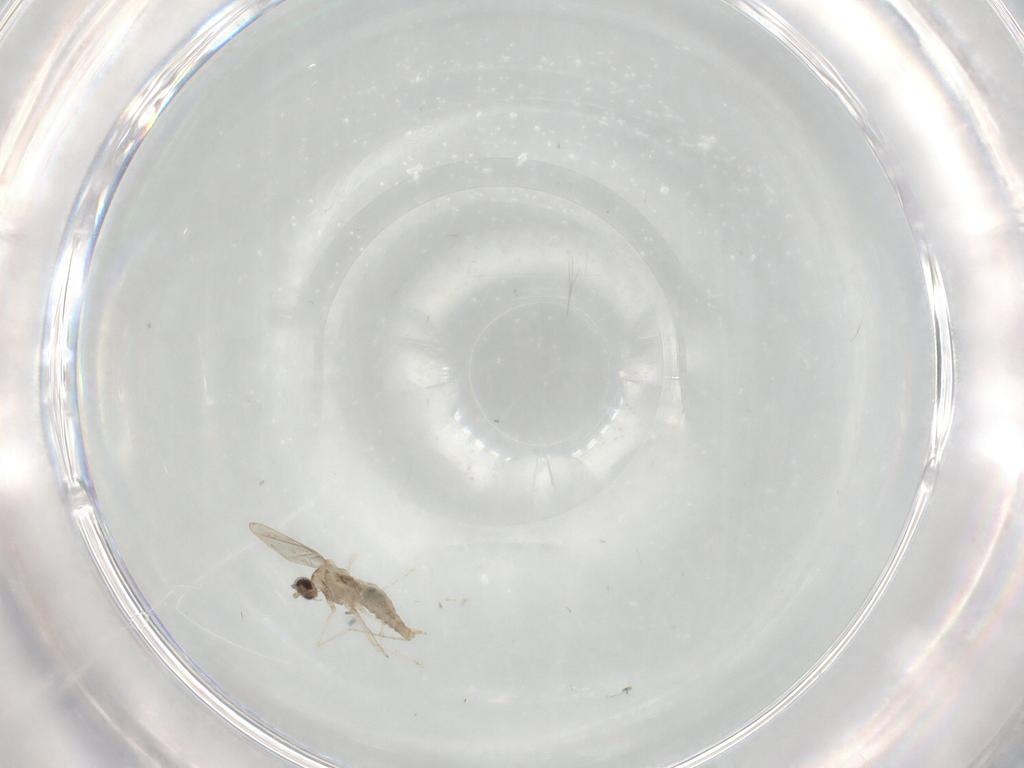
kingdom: Animalia
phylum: Arthropoda
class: Insecta
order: Diptera
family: Cecidomyiidae
